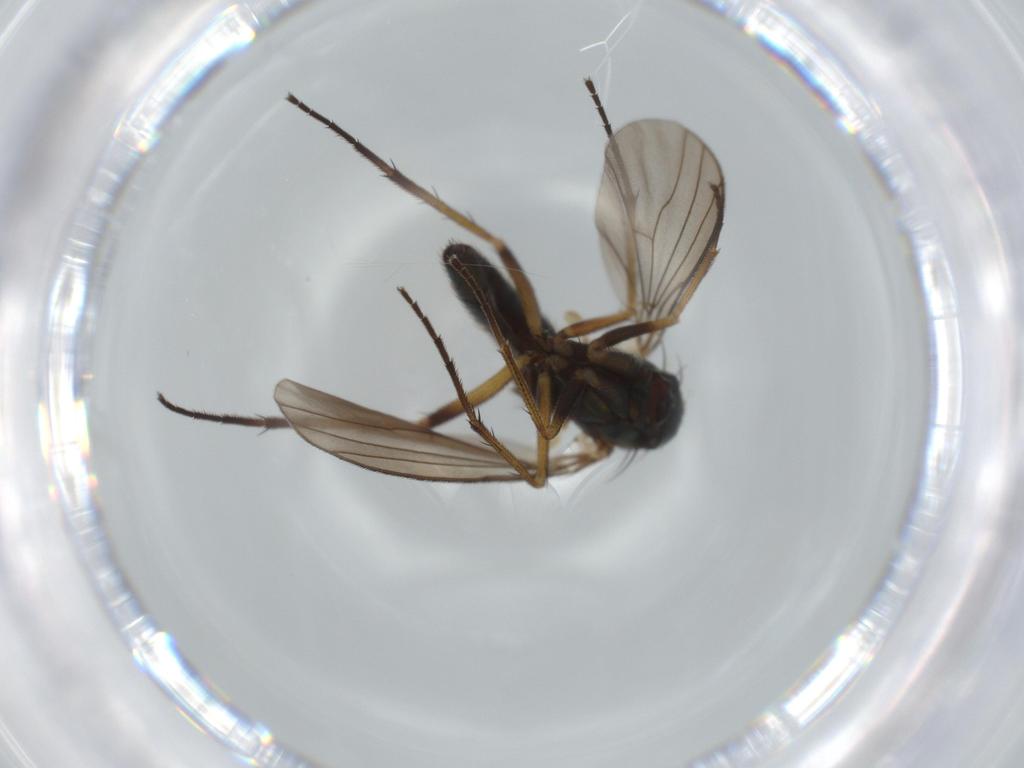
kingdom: Animalia
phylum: Arthropoda
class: Insecta
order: Diptera
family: Dolichopodidae
